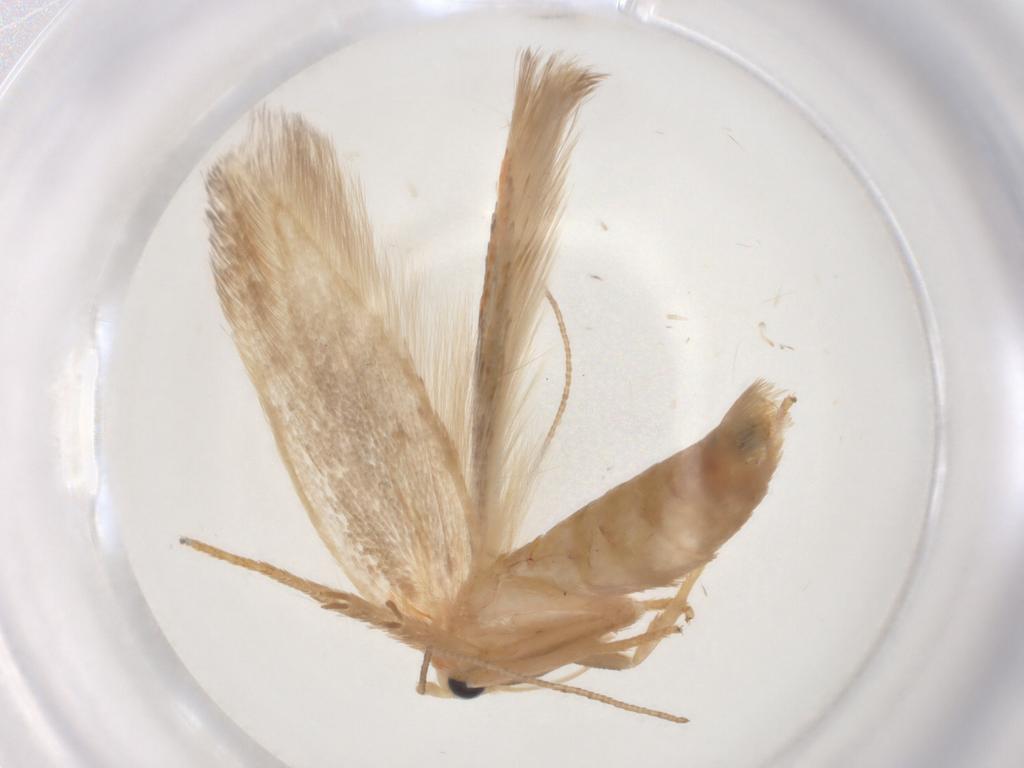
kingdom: Animalia
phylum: Arthropoda
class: Insecta
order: Lepidoptera
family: Geometridae
